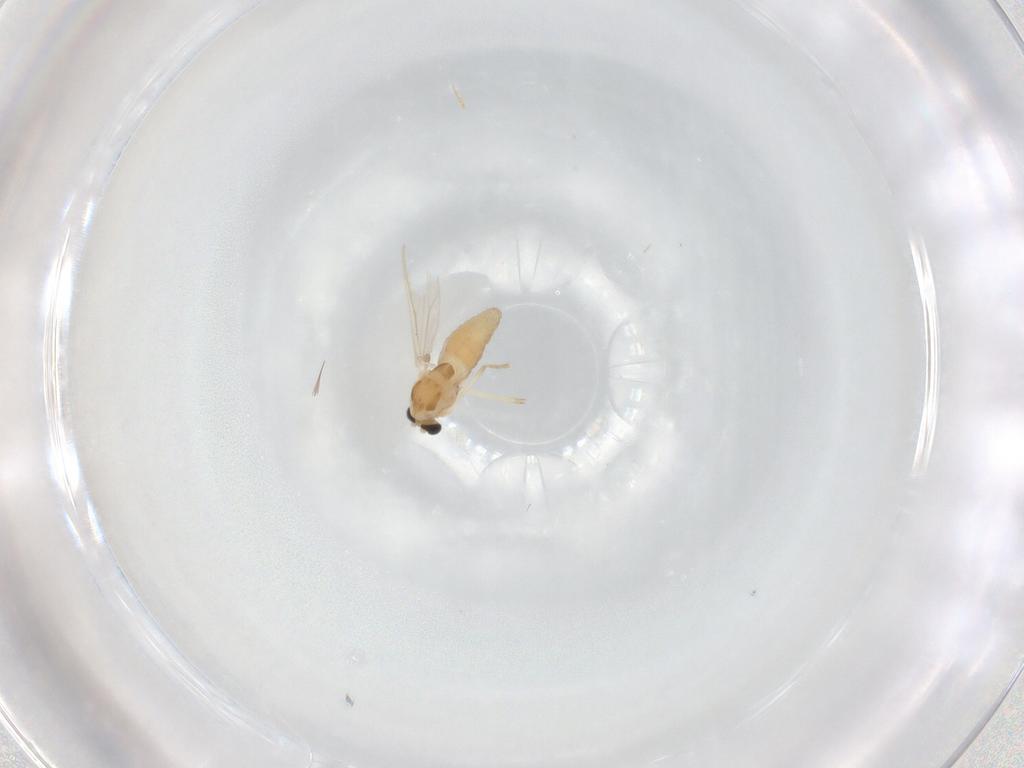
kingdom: Animalia
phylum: Arthropoda
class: Insecta
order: Diptera
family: Chironomidae
